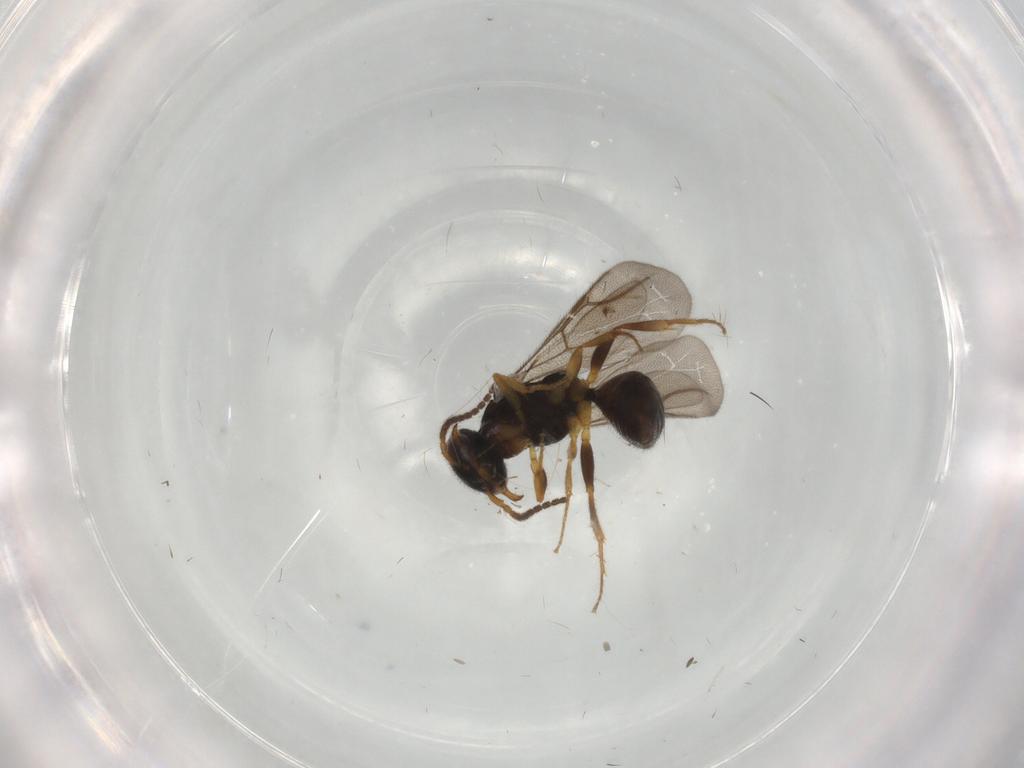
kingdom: Animalia
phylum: Arthropoda
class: Insecta
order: Hymenoptera
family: Bethylidae
